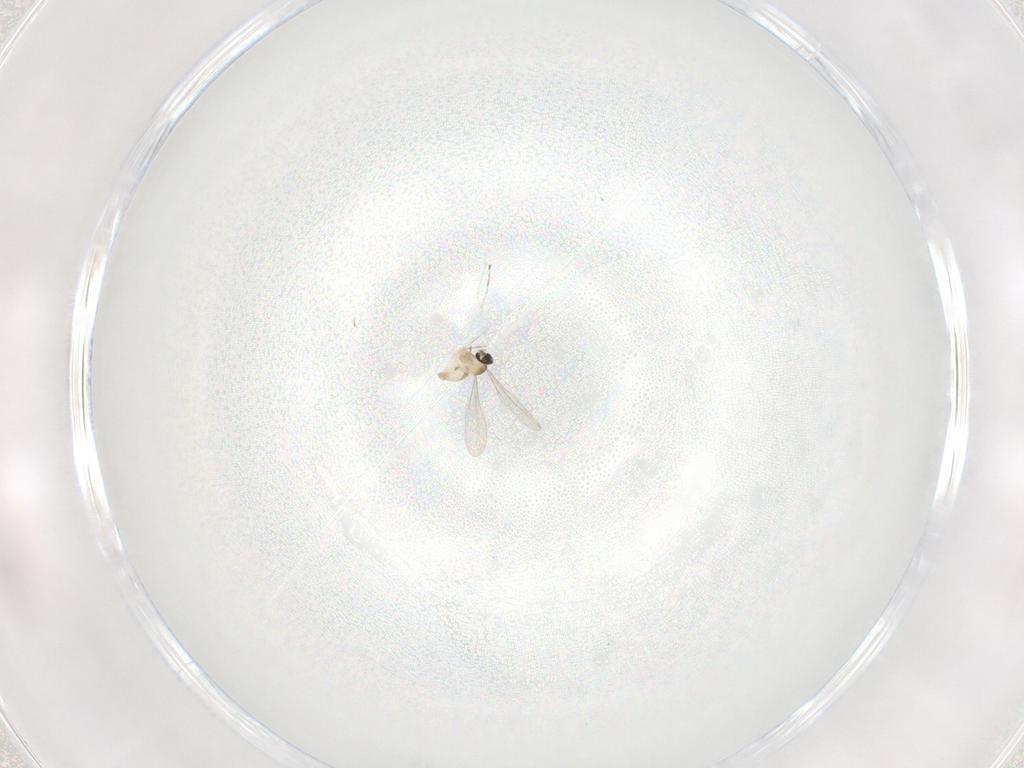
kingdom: Animalia
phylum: Arthropoda
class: Insecta
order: Diptera
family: Cecidomyiidae
